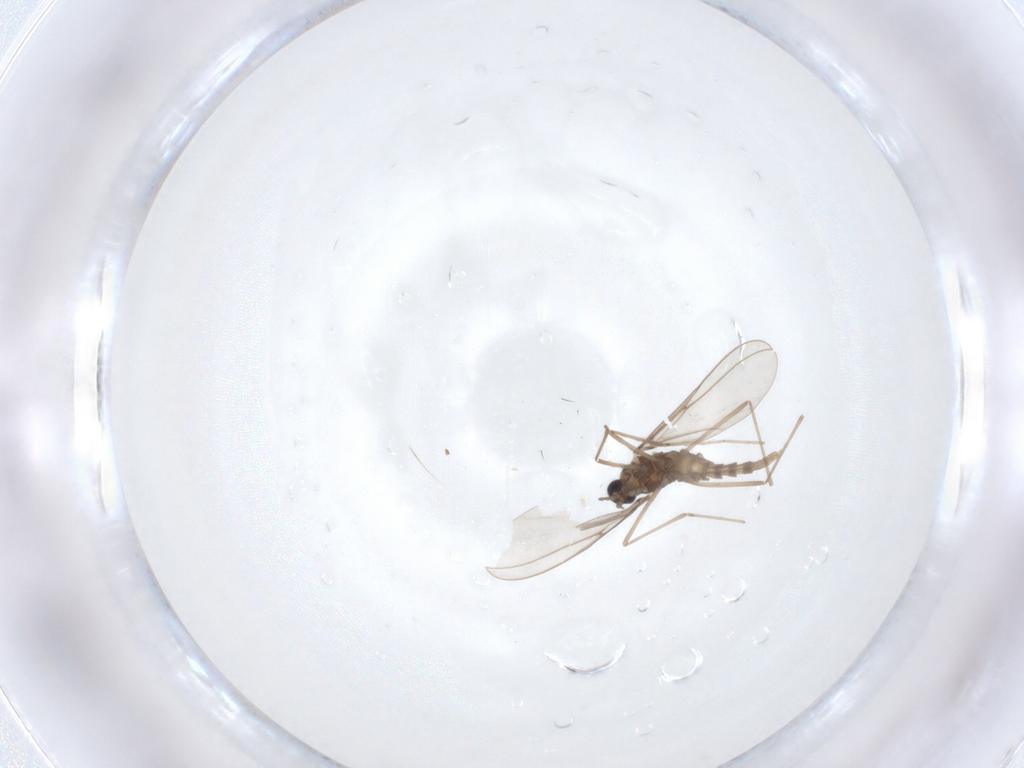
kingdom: Animalia
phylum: Arthropoda
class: Insecta
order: Diptera
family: Cecidomyiidae
